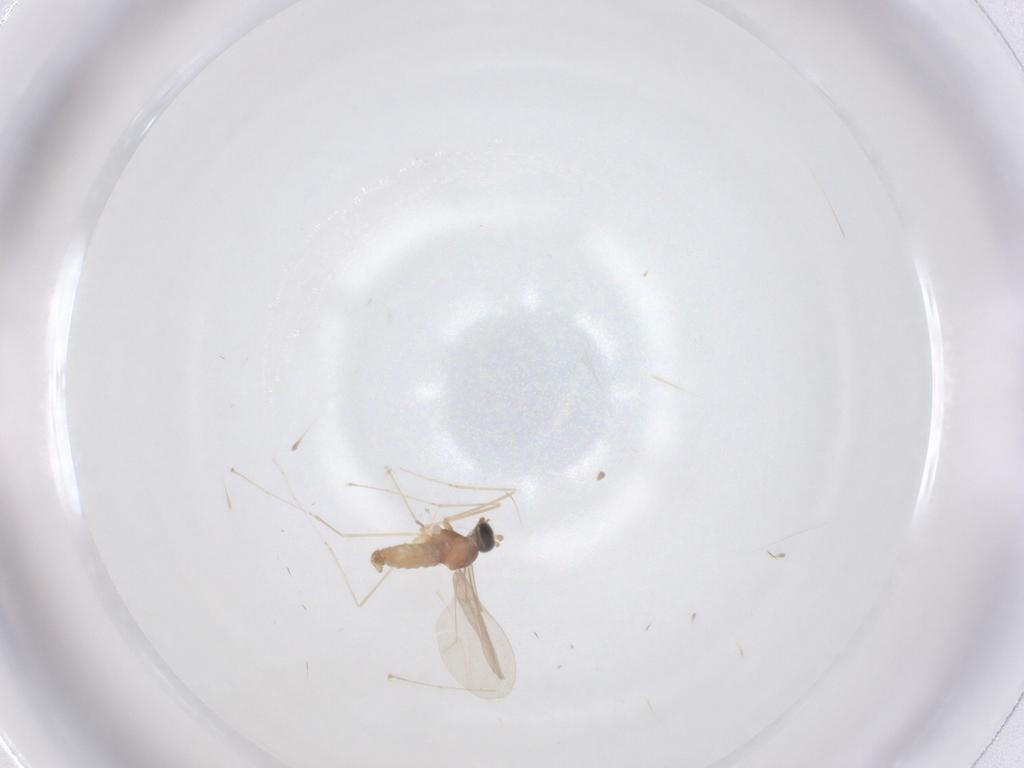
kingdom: Animalia
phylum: Arthropoda
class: Insecta
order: Diptera
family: Cecidomyiidae
